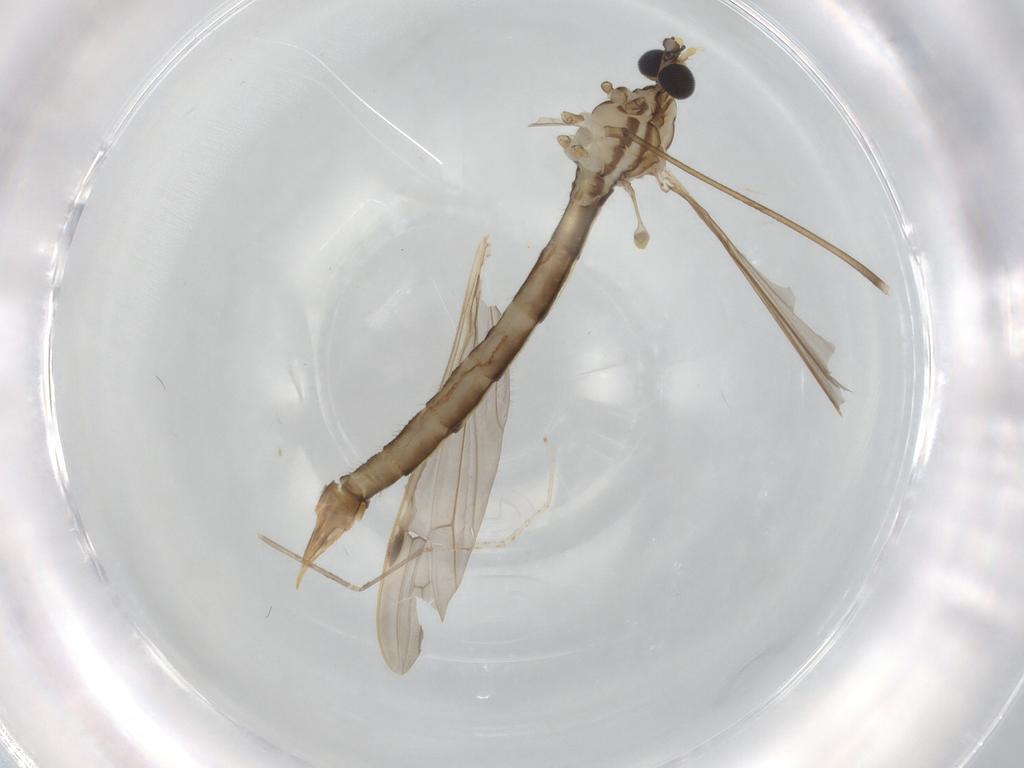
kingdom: Animalia
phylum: Arthropoda
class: Insecta
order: Diptera
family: Limoniidae
